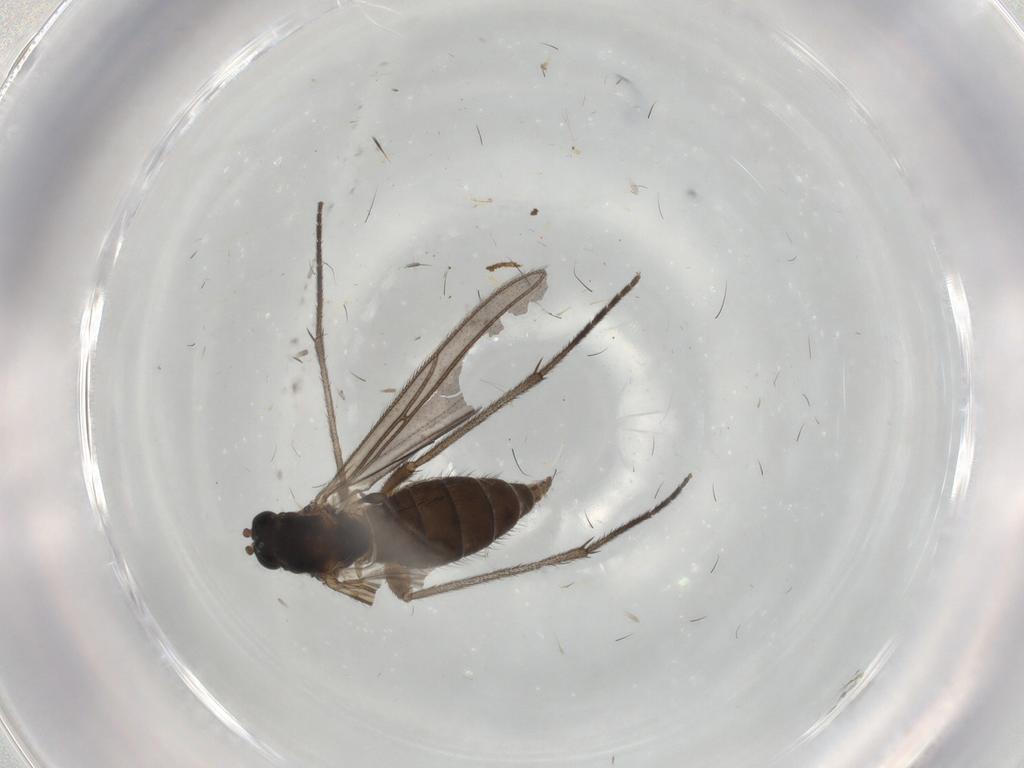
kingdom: Animalia
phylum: Arthropoda
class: Insecta
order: Diptera
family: Sciaridae
